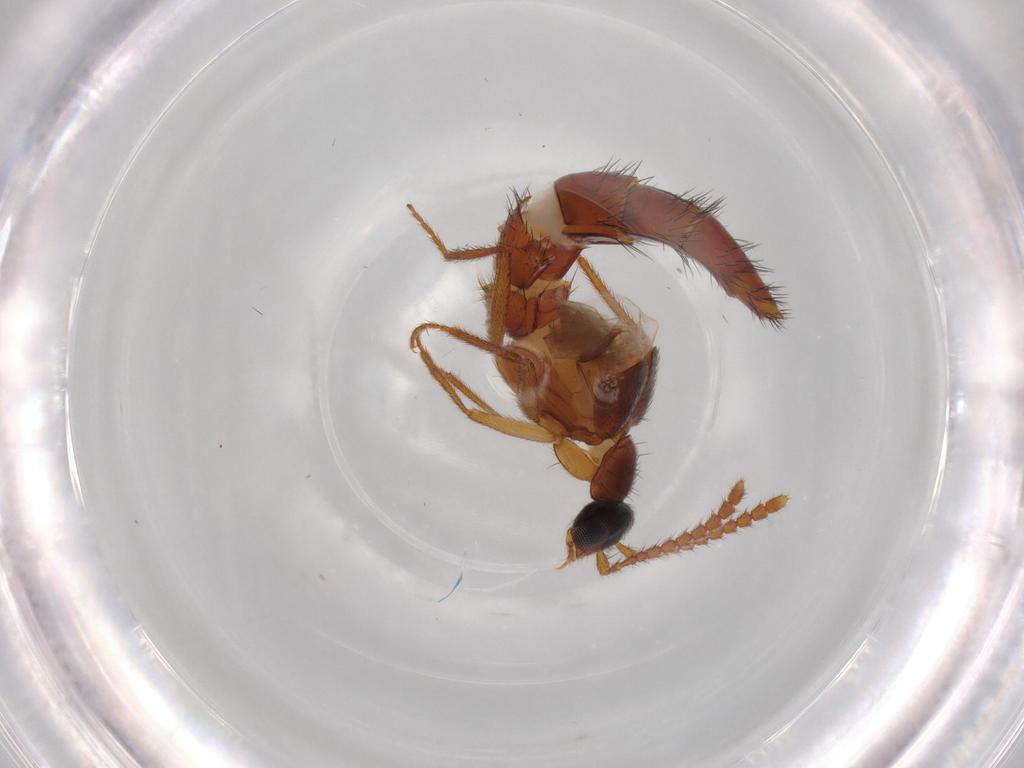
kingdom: Animalia
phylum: Arthropoda
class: Insecta
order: Coleoptera
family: Staphylinidae
